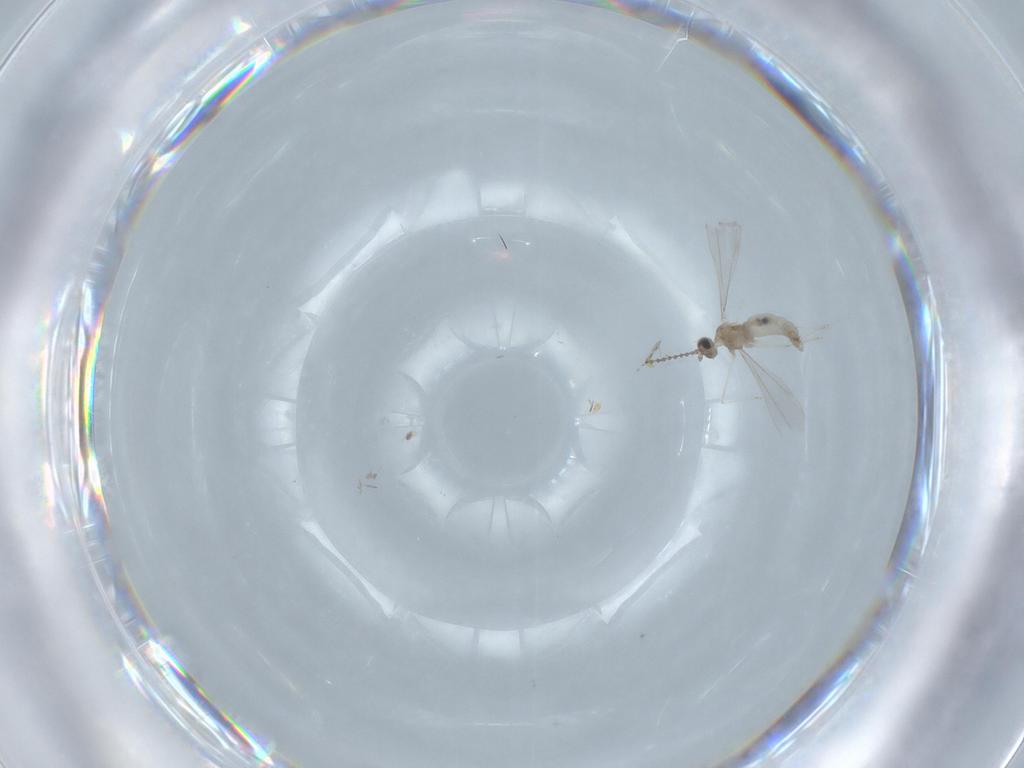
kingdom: Animalia
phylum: Arthropoda
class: Insecta
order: Diptera
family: Cecidomyiidae
